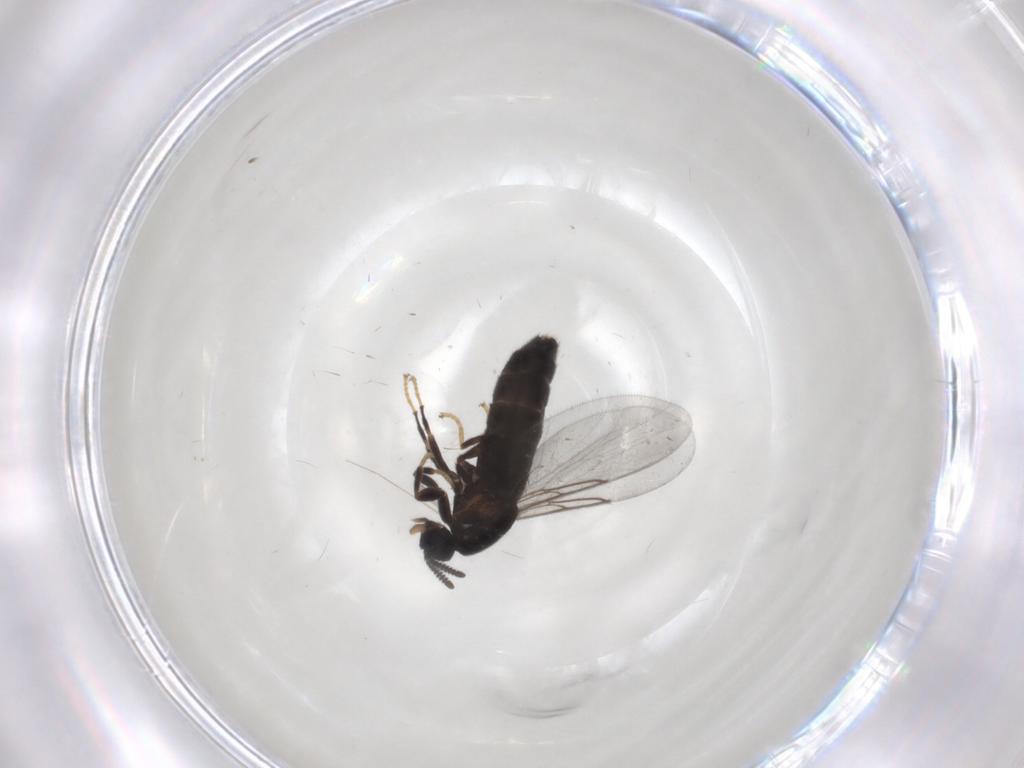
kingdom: Animalia
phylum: Arthropoda
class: Insecta
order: Diptera
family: Scatopsidae
